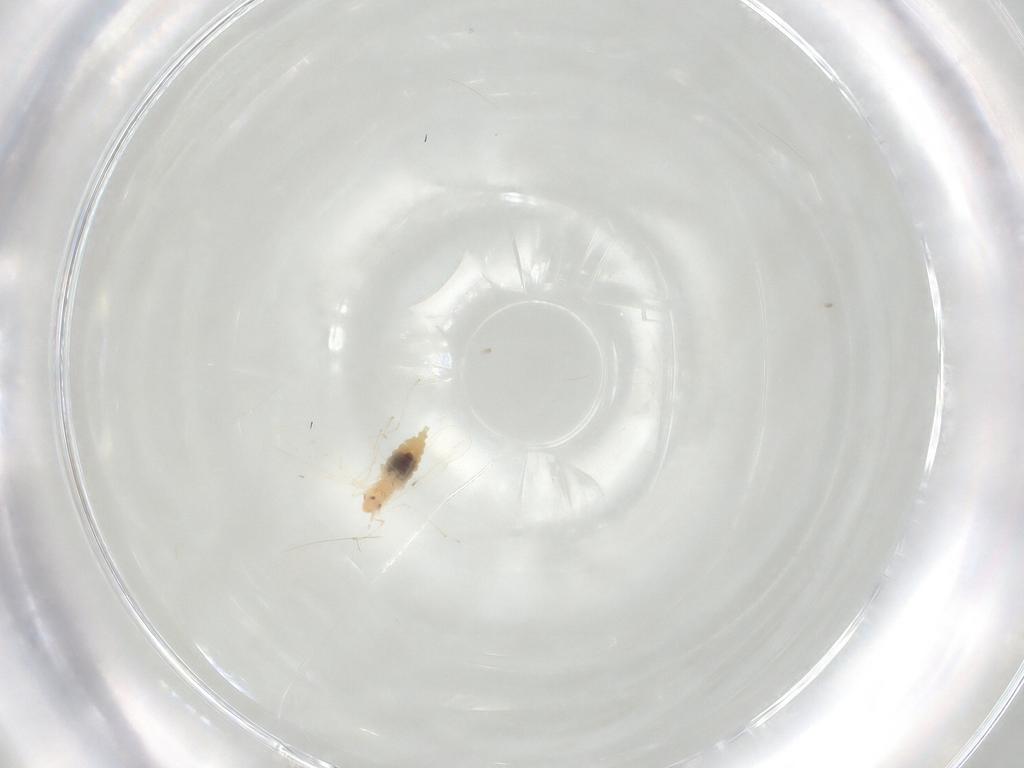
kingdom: Animalia
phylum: Arthropoda
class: Insecta
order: Diptera
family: Cecidomyiidae
